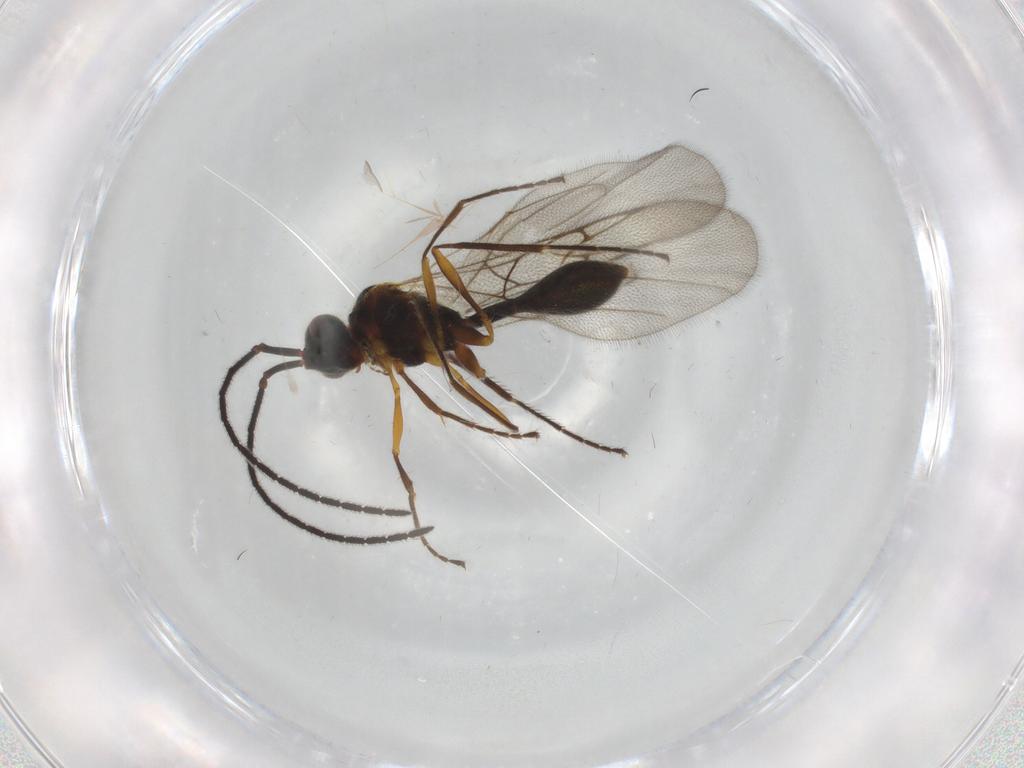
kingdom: Animalia
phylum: Arthropoda
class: Insecta
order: Hymenoptera
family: Diapriidae
